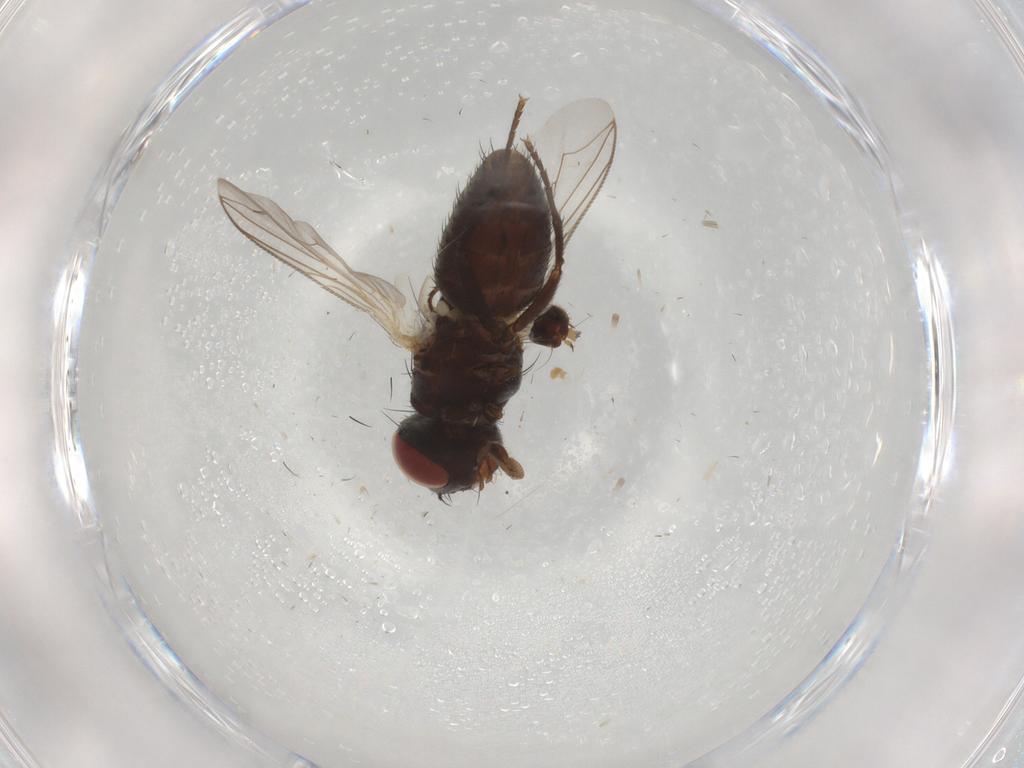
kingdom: Animalia
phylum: Arthropoda
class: Insecta
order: Diptera
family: Sarcophagidae
